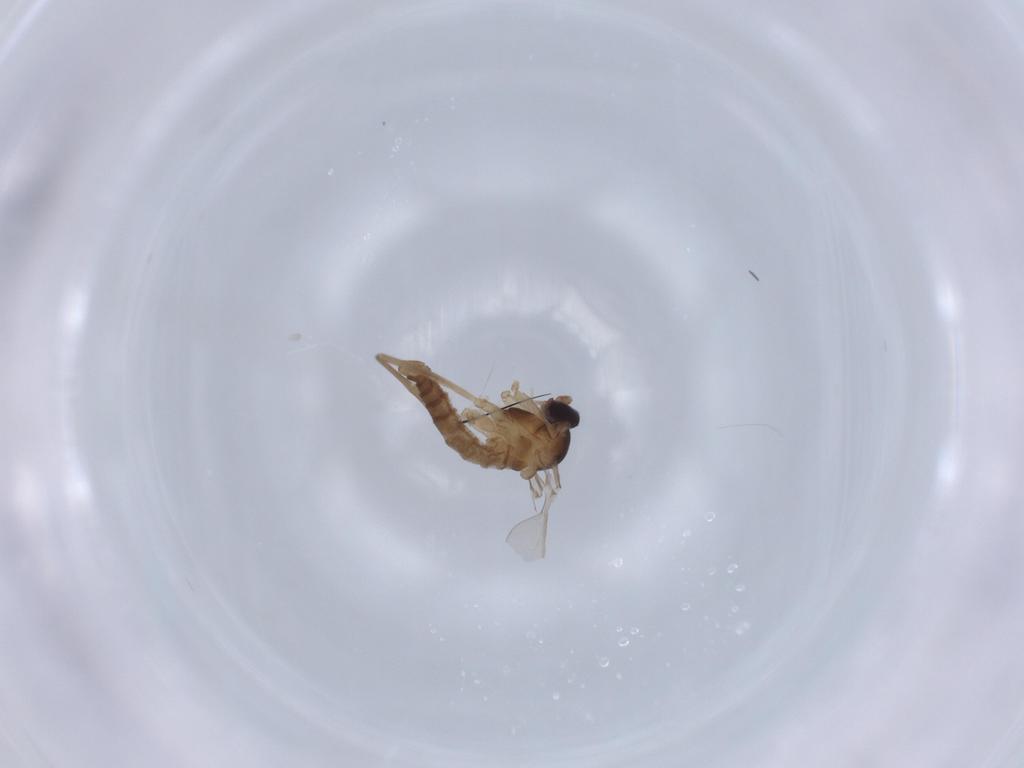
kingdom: Animalia
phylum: Arthropoda
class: Insecta
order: Diptera
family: Cecidomyiidae
